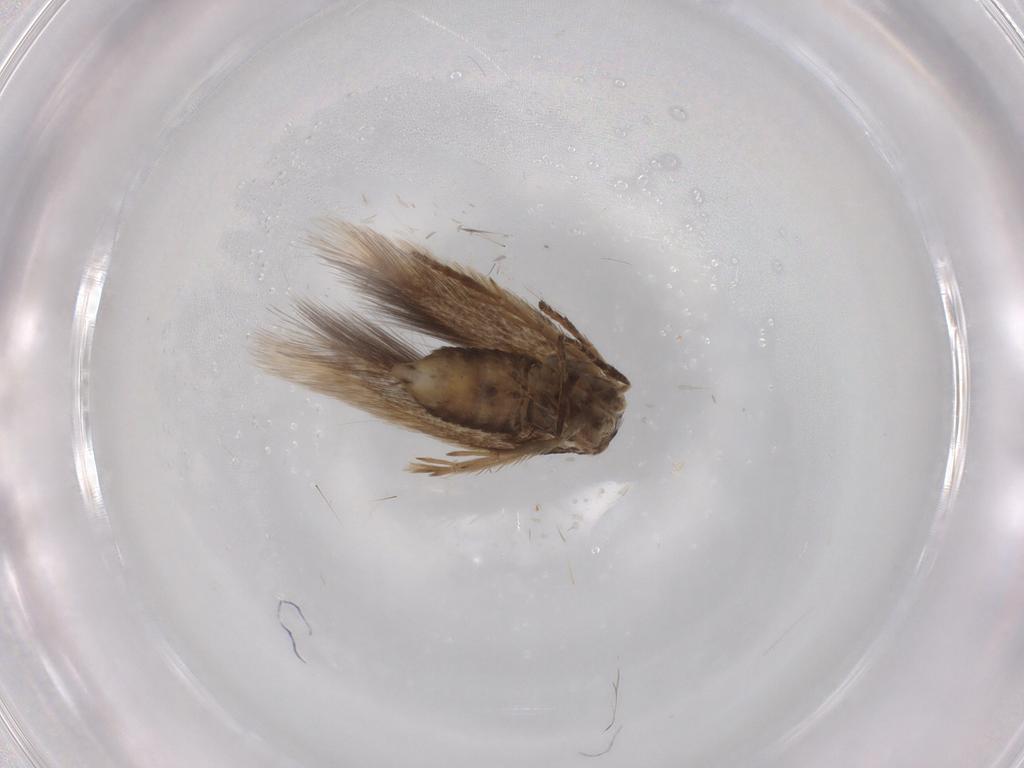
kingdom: Animalia
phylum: Arthropoda
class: Insecta
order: Lepidoptera
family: Nepticulidae
